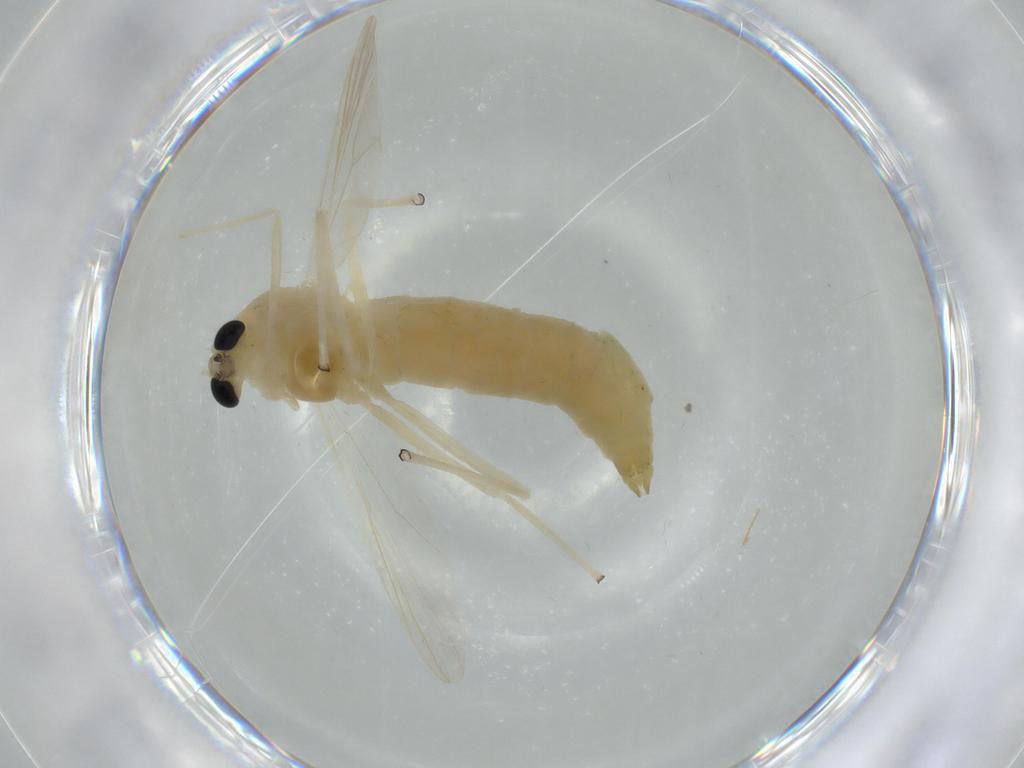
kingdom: Animalia
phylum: Arthropoda
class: Insecta
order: Diptera
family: Chironomidae
